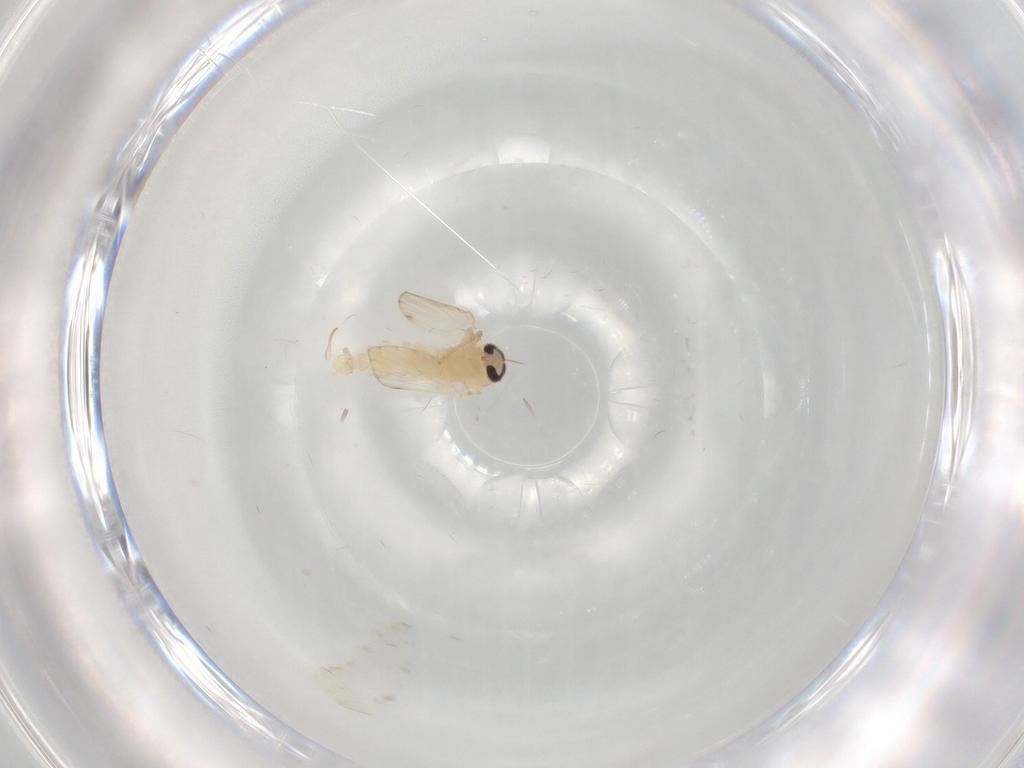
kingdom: Animalia
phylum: Arthropoda
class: Insecta
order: Diptera
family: Psychodidae
